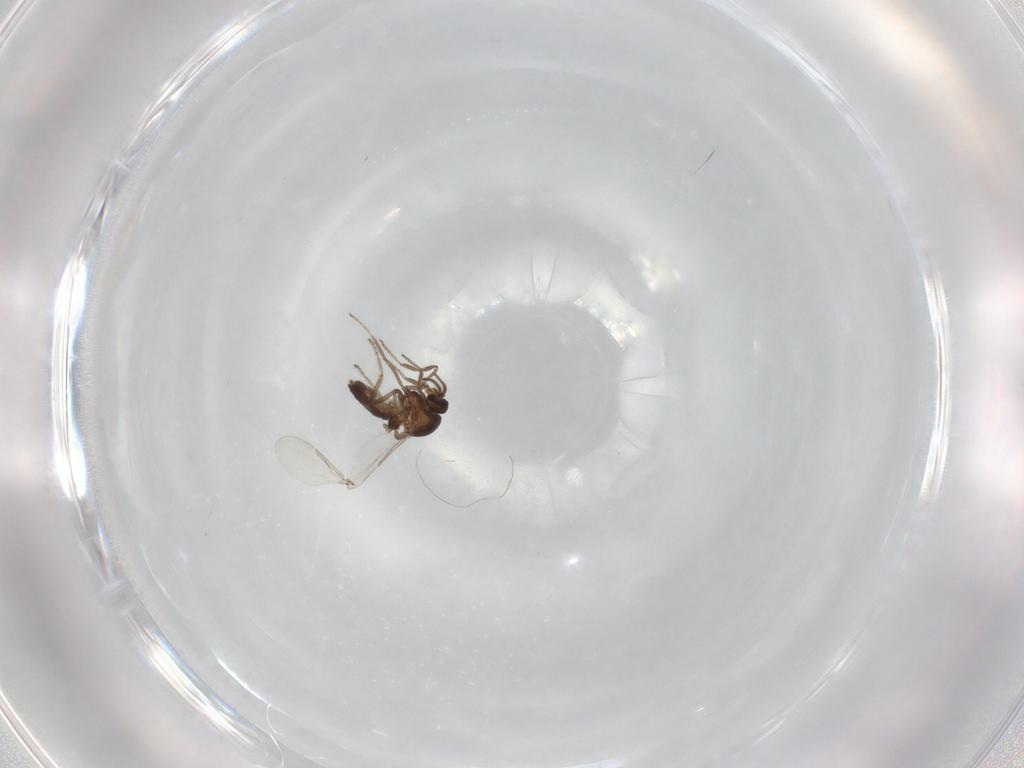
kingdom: Animalia
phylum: Arthropoda
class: Insecta
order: Diptera
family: Ceratopogonidae
